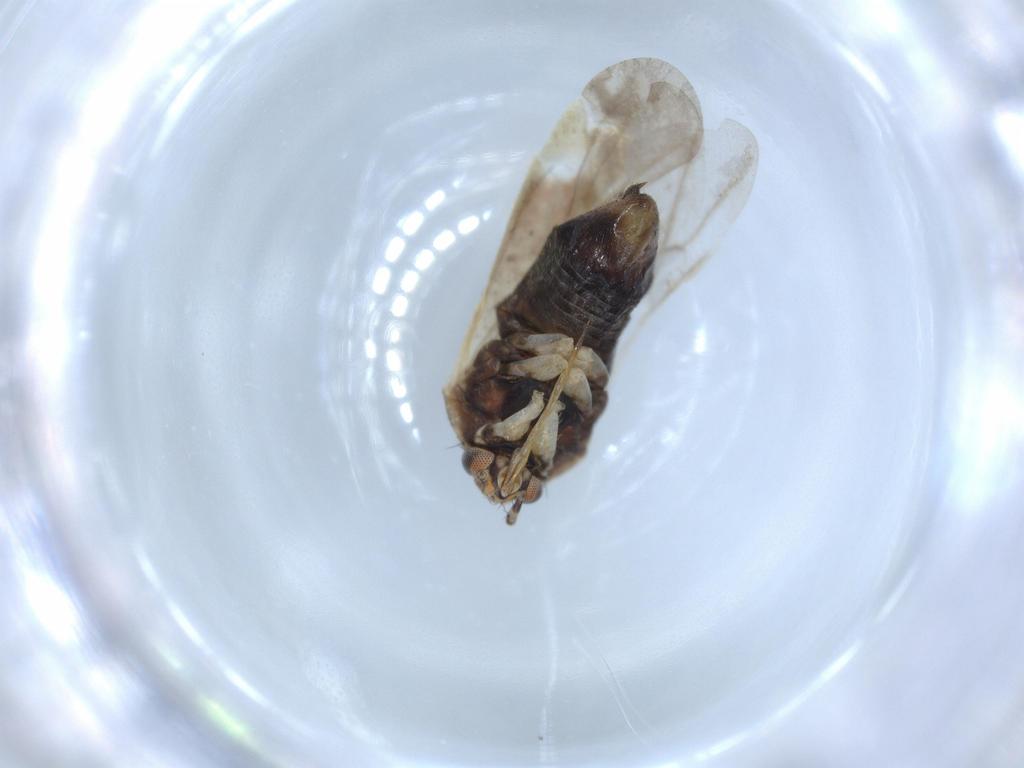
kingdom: Animalia
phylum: Arthropoda
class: Insecta
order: Hemiptera
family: Miridae
